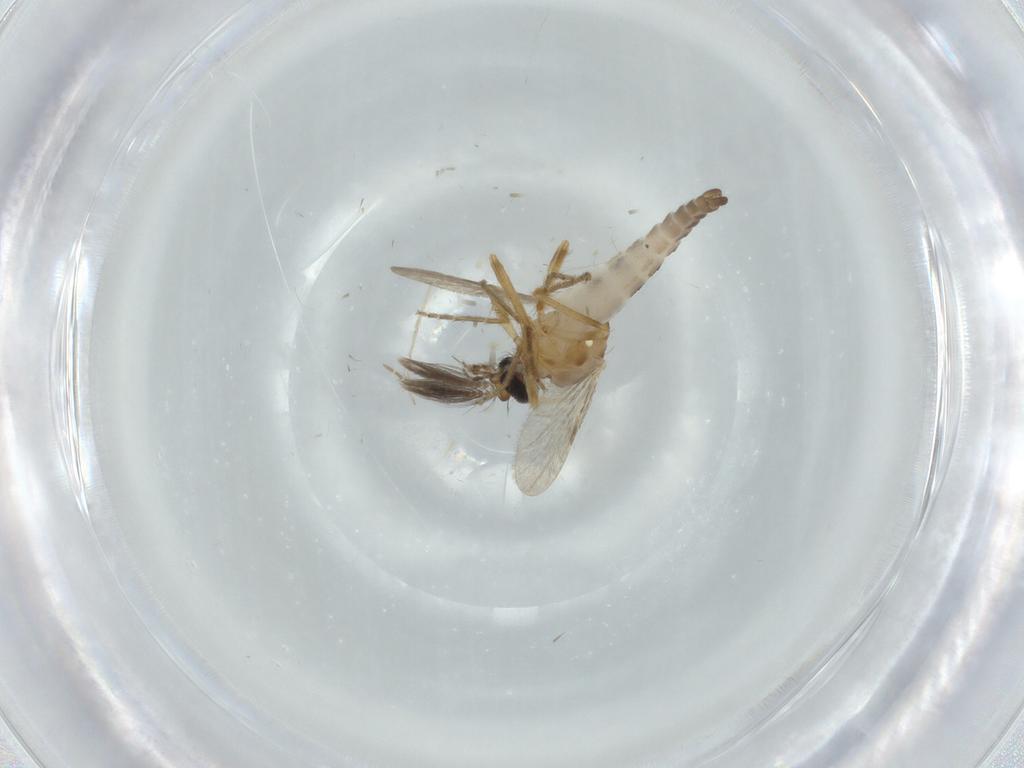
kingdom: Animalia
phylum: Arthropoda
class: Insecta
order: Diptera
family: Ceratopogonidae
